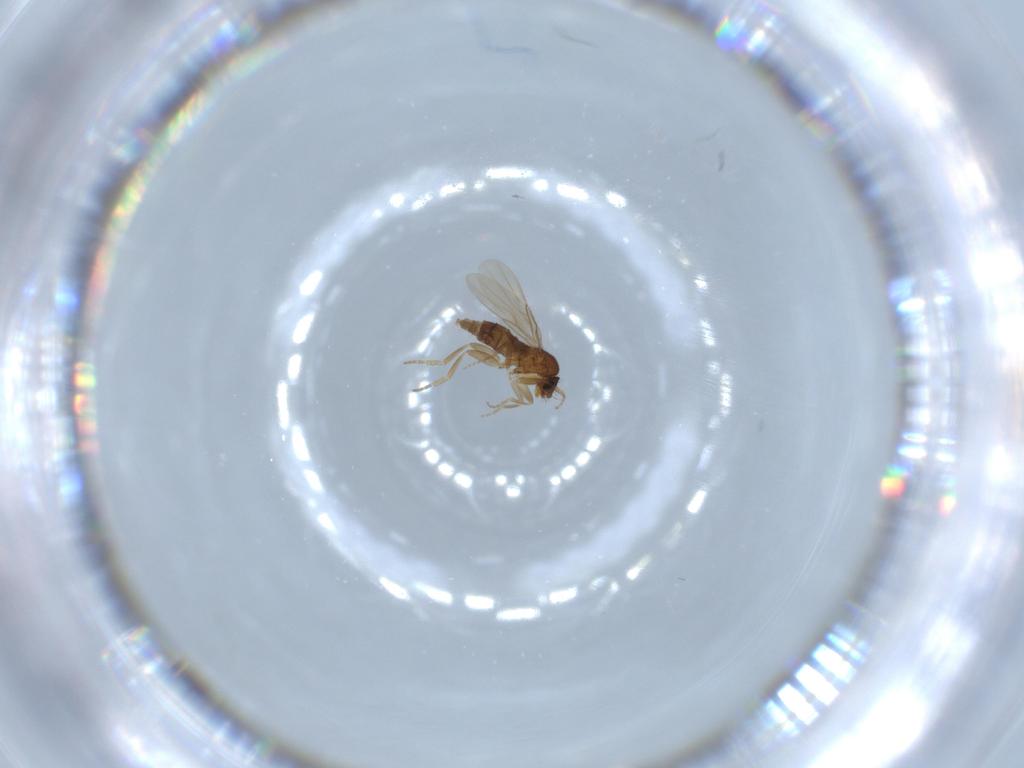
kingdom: Animalia
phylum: Arthropoda
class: Insecta
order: Diptera
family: Phoridae
